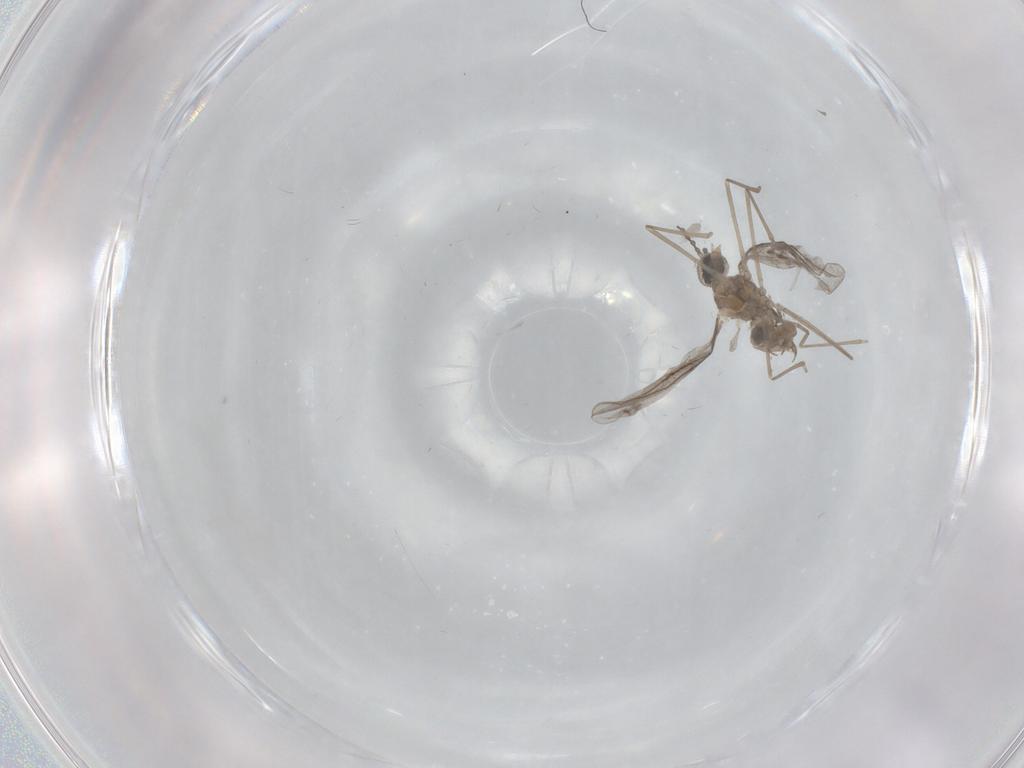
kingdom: Animalia
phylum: Arthropoda
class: Insecta
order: Diptera
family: Cecidomyiidae
